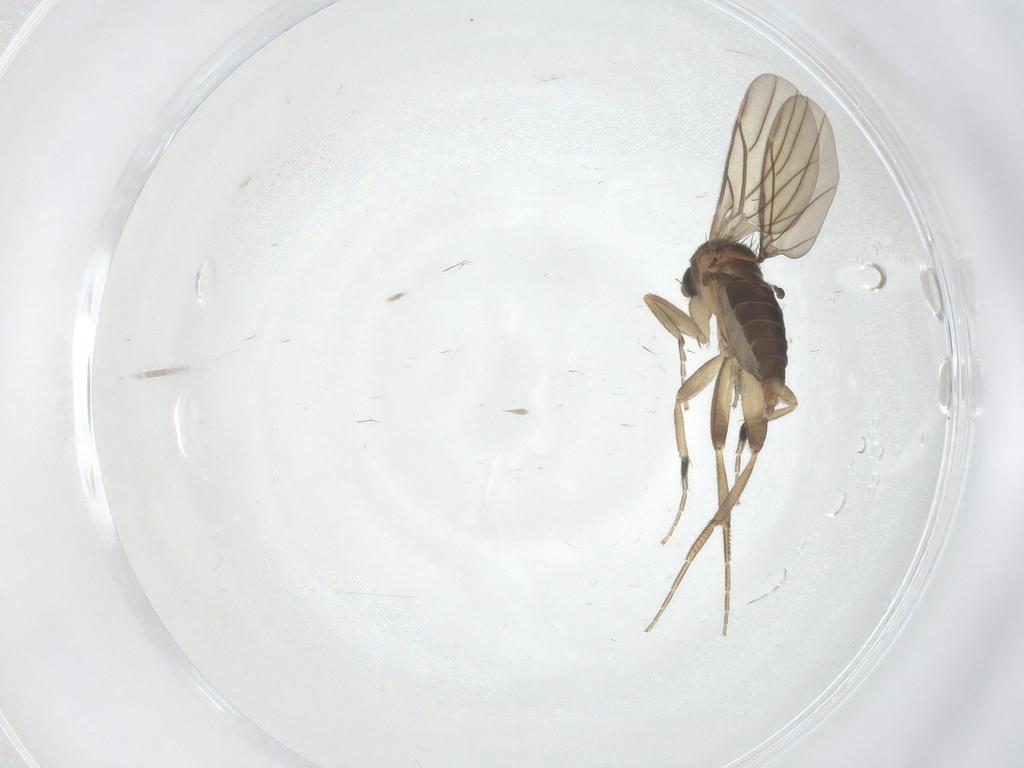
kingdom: Animalia
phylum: Arthropoda
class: Insecta
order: Diptera
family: Phoridae
